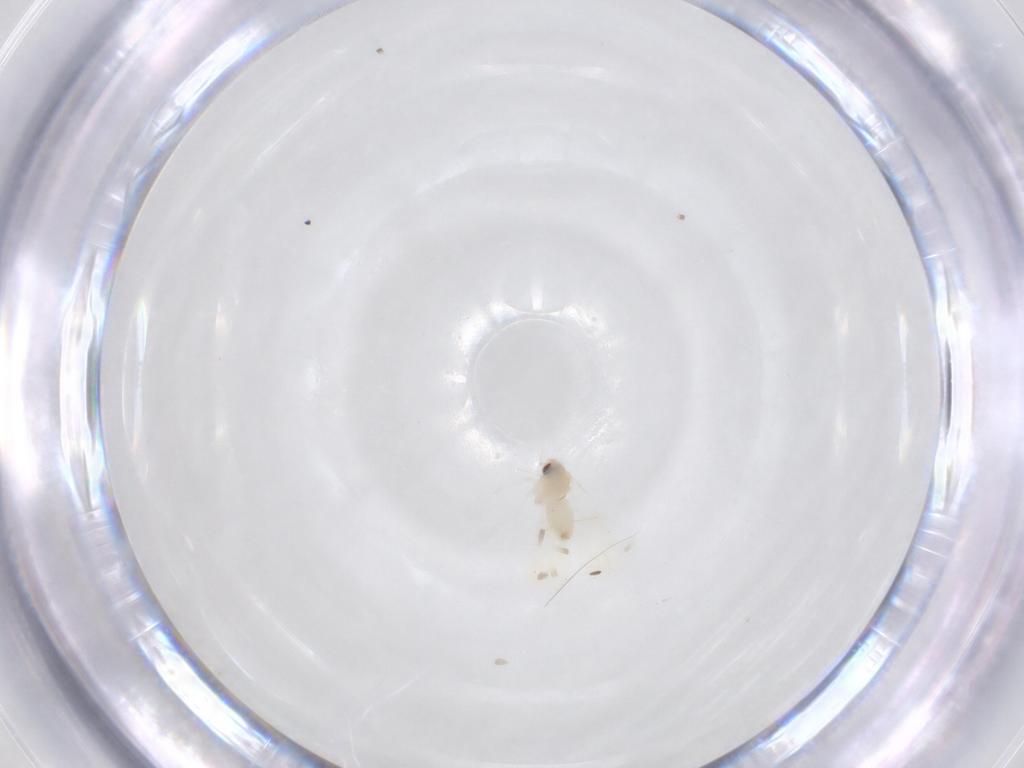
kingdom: Animalia
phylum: Arthropoda
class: Insecta
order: Hemiptera
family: Aleyrodidae
